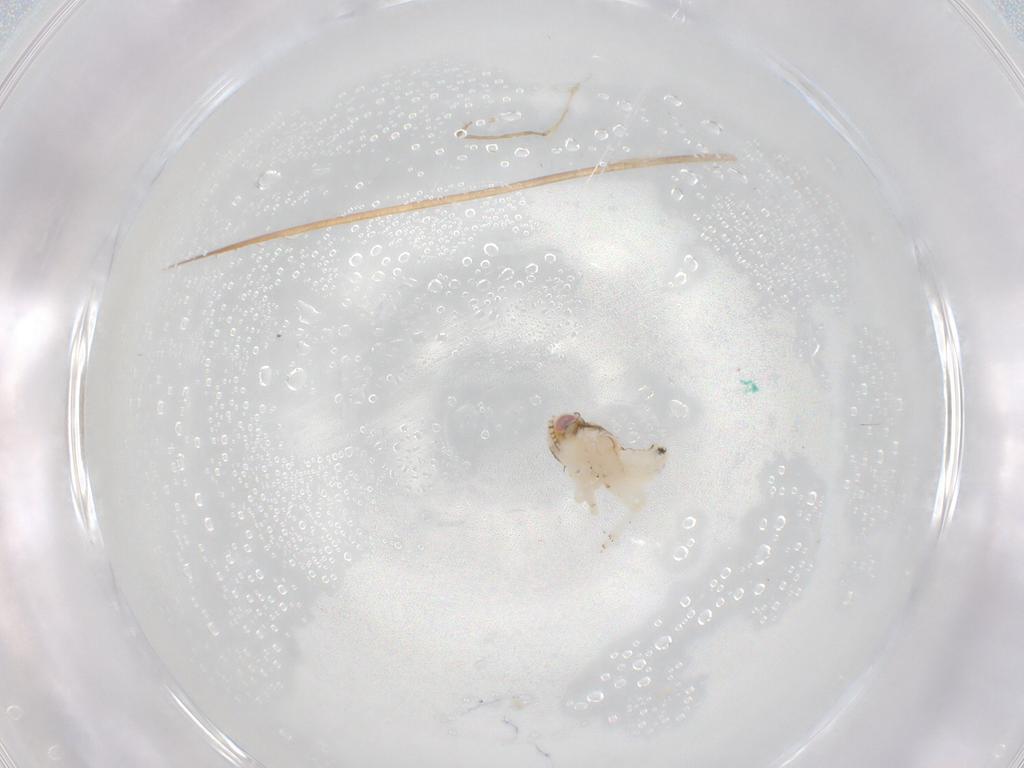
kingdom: Animalia
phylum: Arthropoda
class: Insecta
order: Hemiptera
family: Nogodinidae
